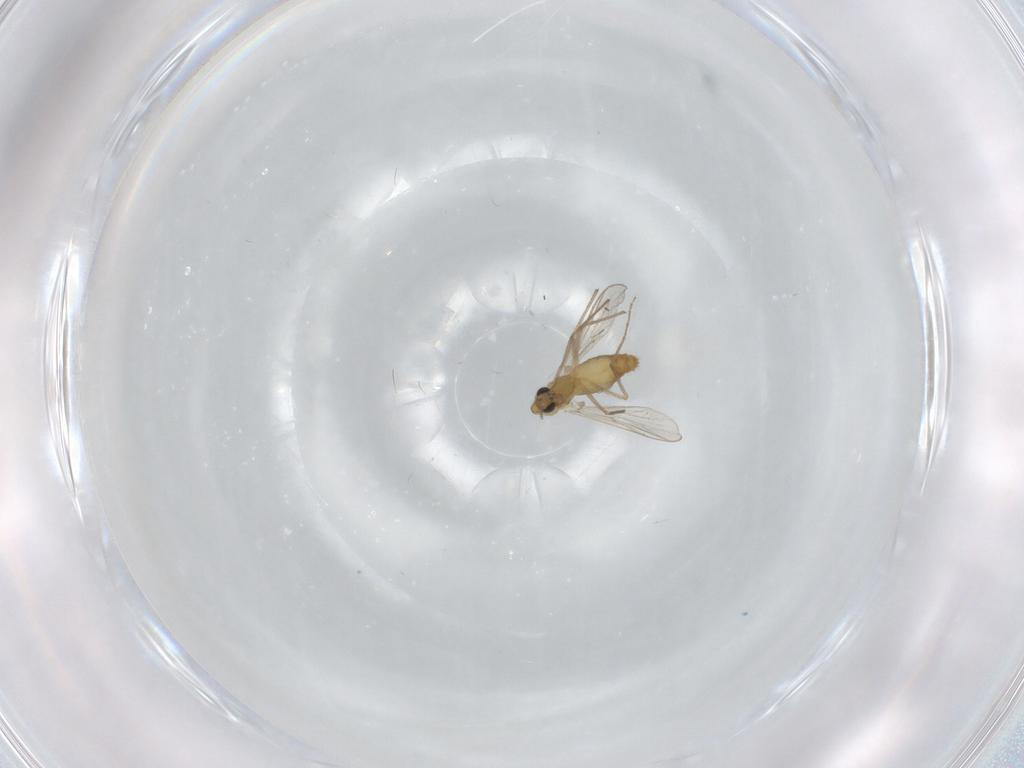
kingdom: Animalia
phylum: Arthropoda
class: Insecta
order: Diptera
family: Chironomidae
